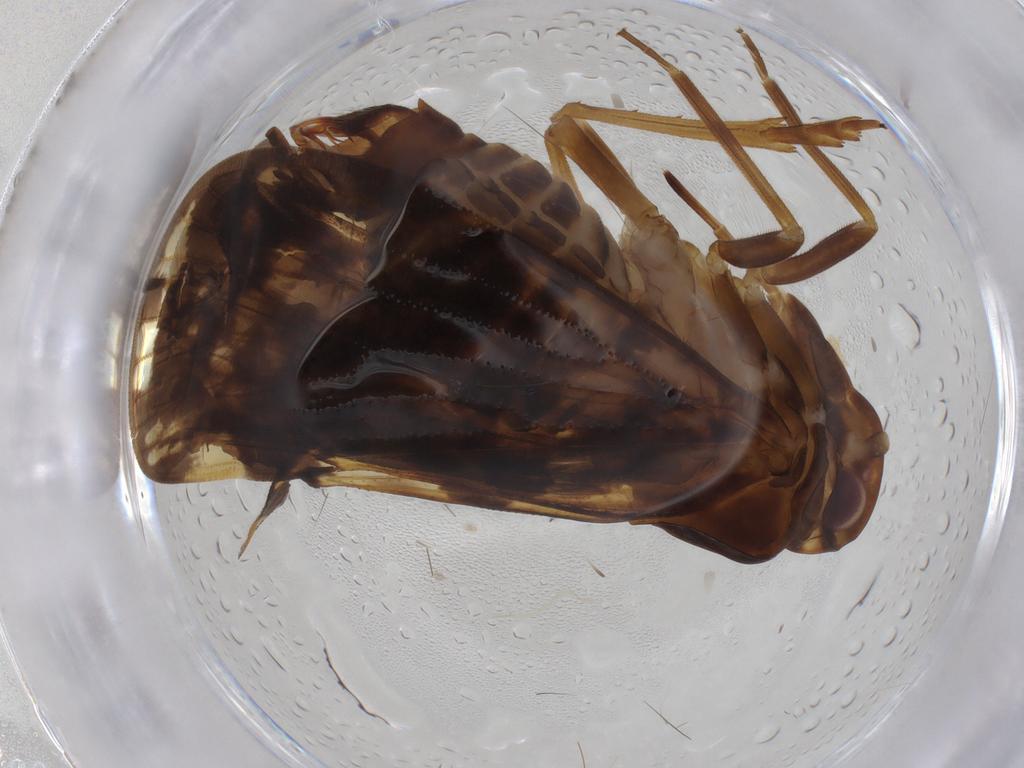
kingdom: Animalia
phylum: Arthropoda
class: Insecta
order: Hemiptera
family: Cixiidae
